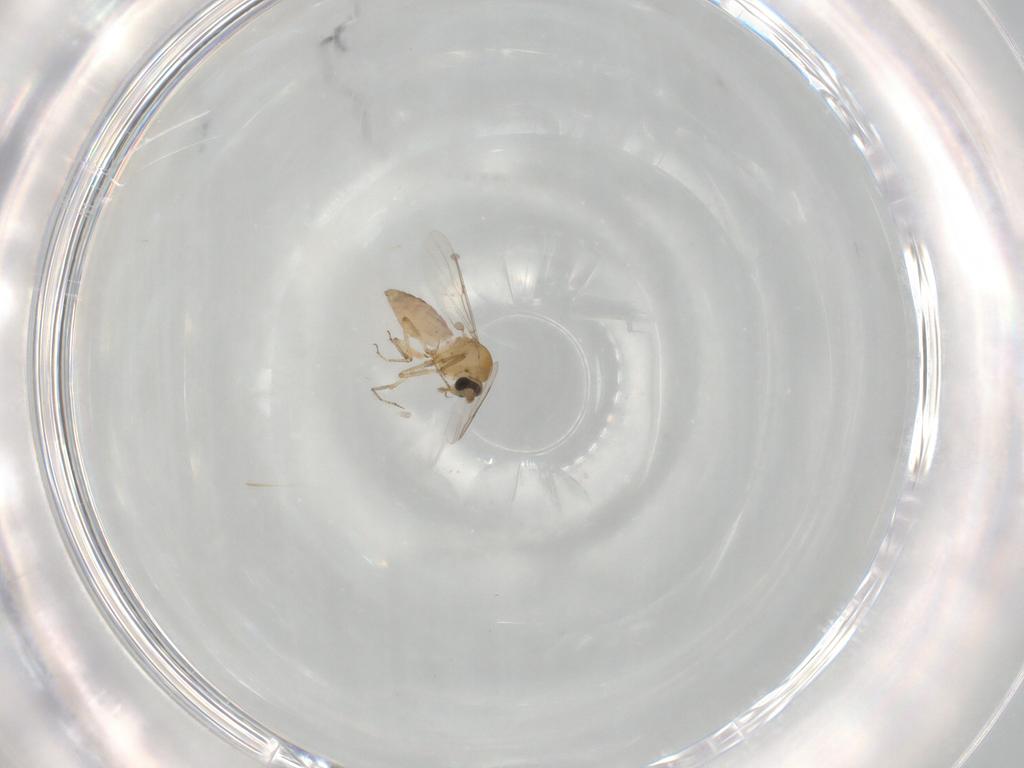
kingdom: Animalia
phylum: Arthropoda
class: Insecta
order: Diptera
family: Ceratopogonidae
